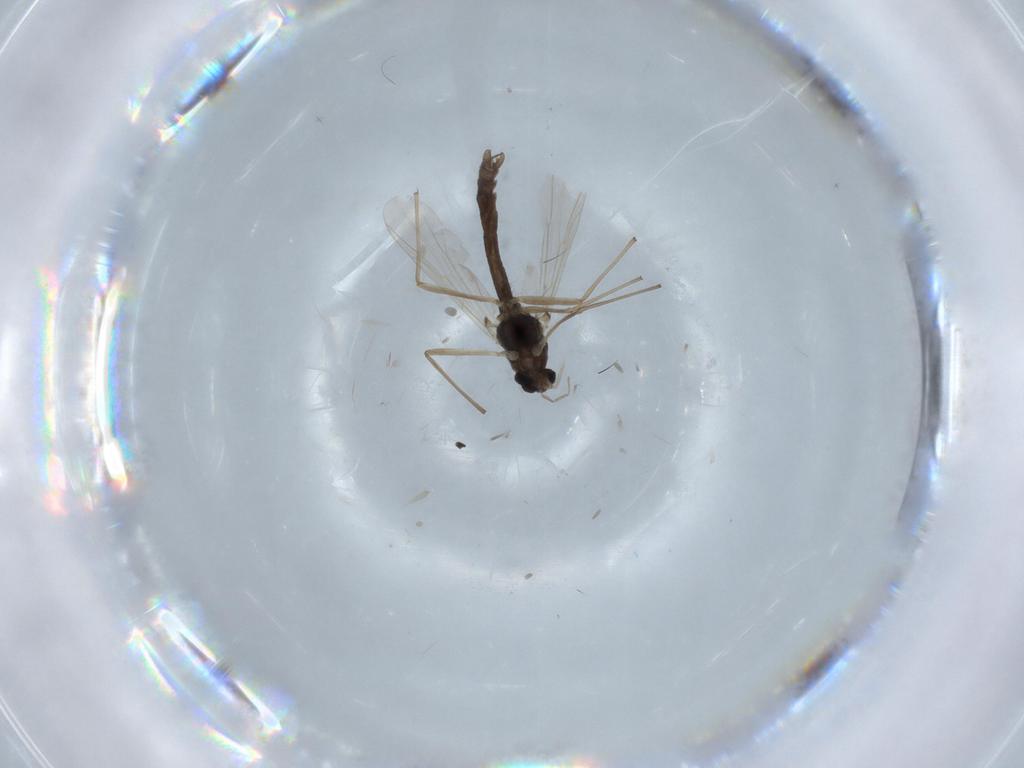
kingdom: Animalia
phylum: Arthropoda
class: Insecta
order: Diptera
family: Chironomidae
